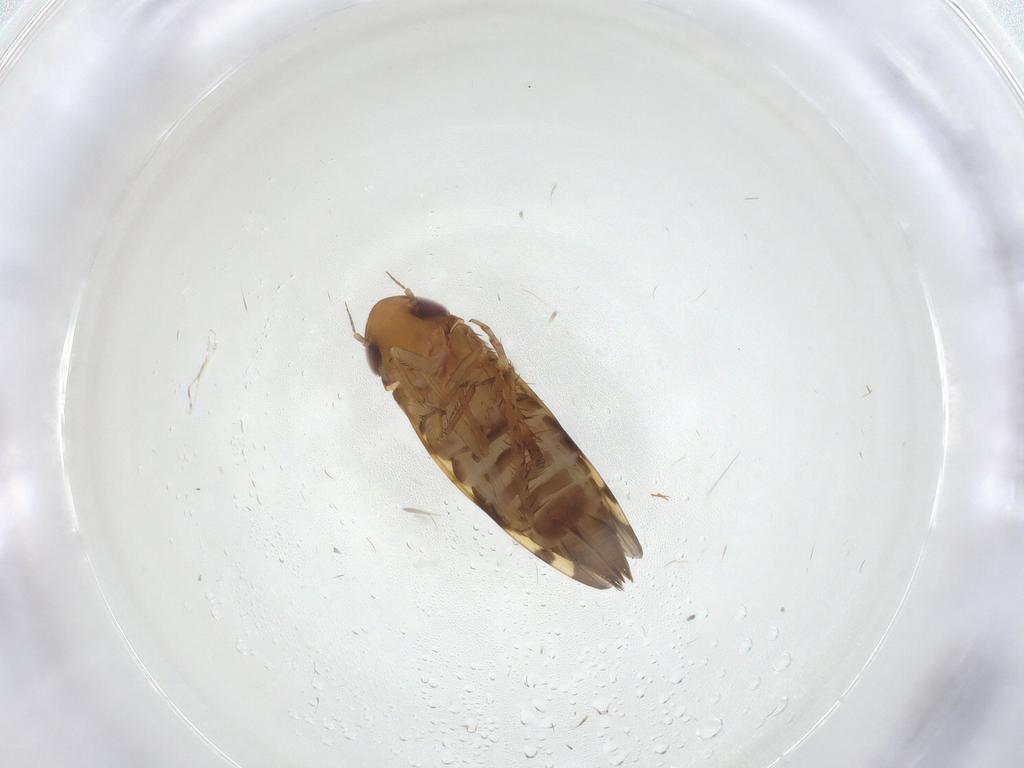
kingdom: Animalia
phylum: Arthropoda
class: Insecta
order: Hemiptera
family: Cicadellidae
